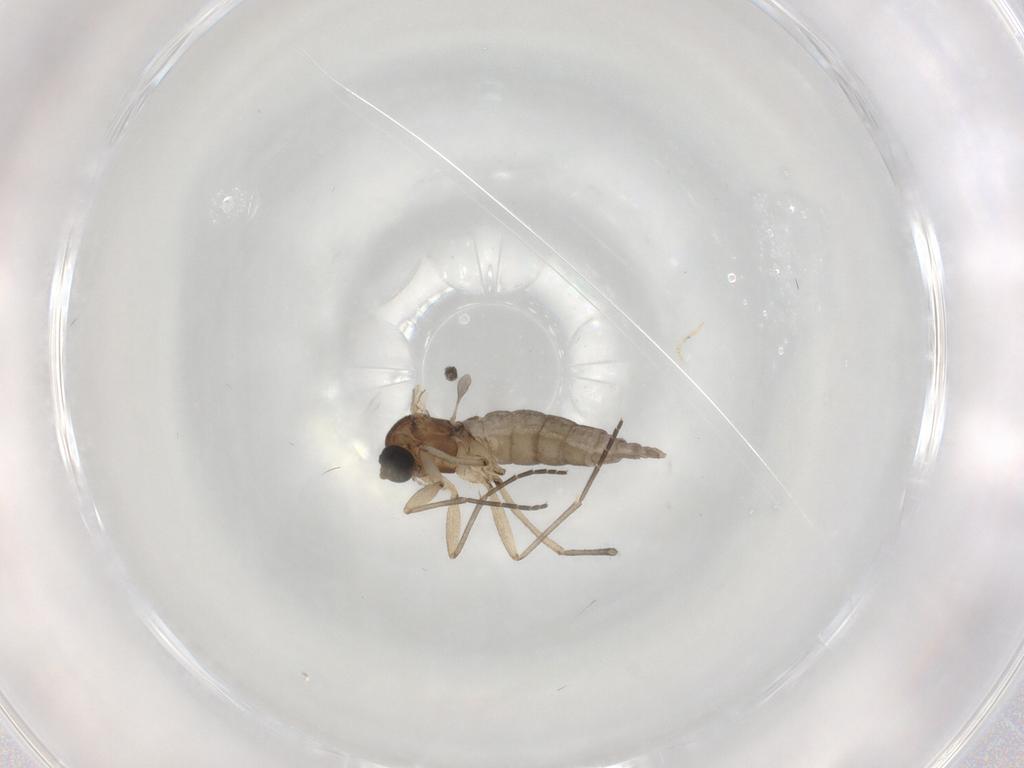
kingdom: Animalia
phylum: Arthropoda
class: Insecta
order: Diptera
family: Sciaridae
